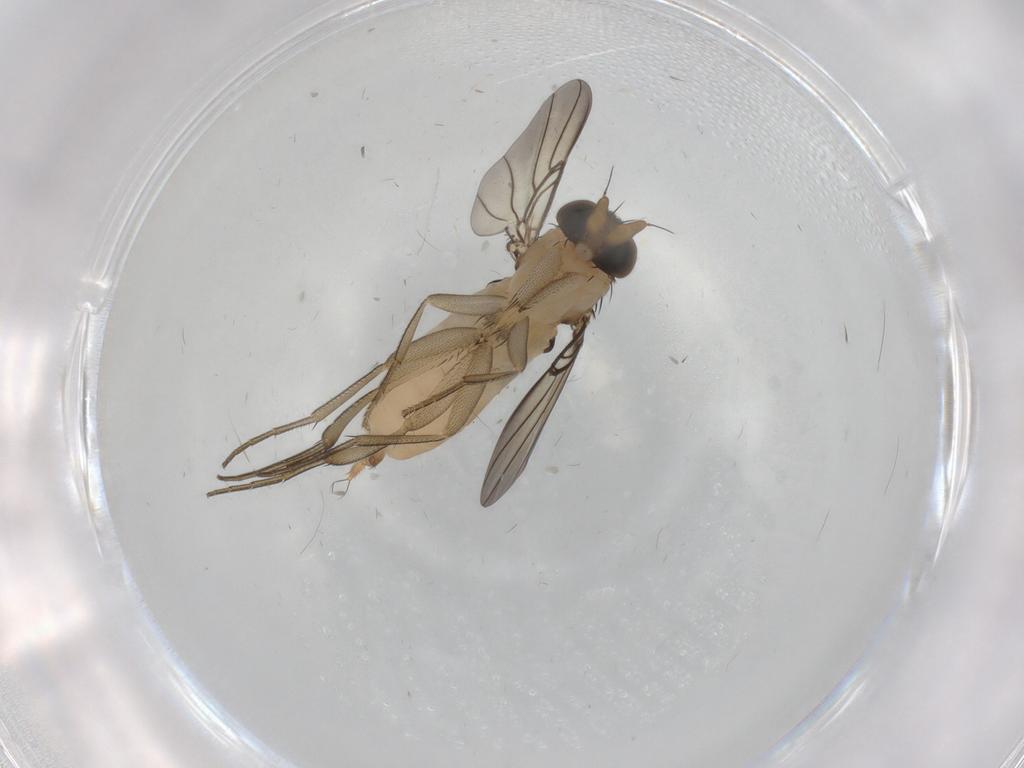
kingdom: Animalia
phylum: Arthropoda
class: Insecta
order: Diptera
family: Phoridae
